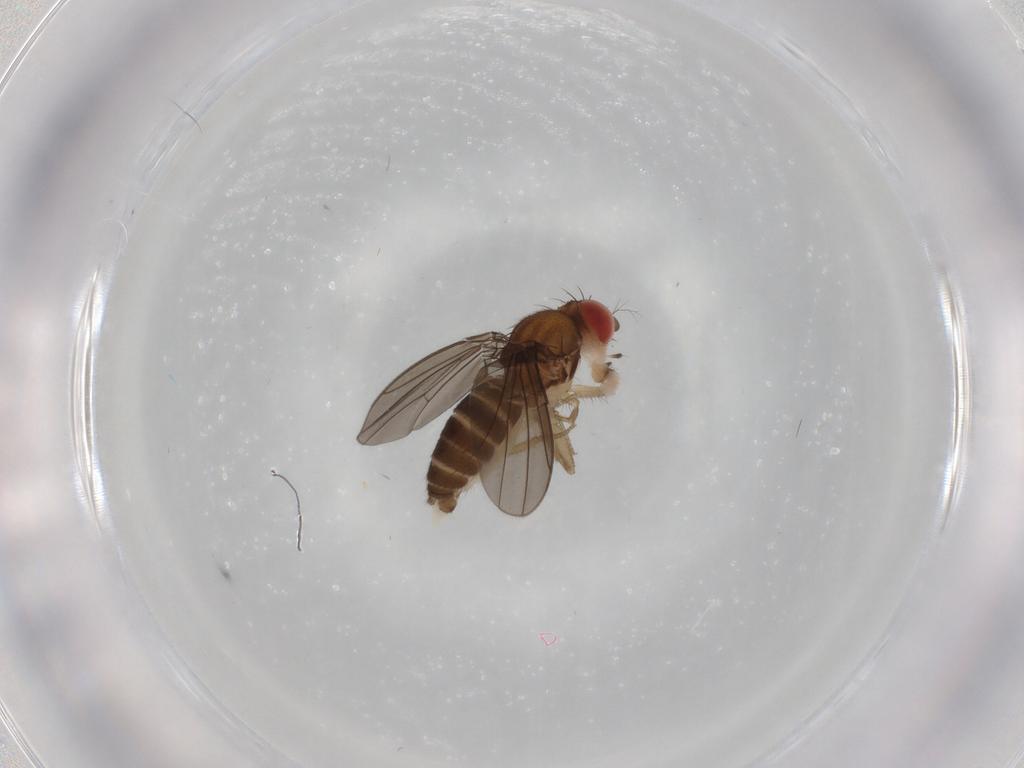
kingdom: Animalia
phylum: Arthropoda
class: Insecta
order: Diptera
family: Drosophilidae
